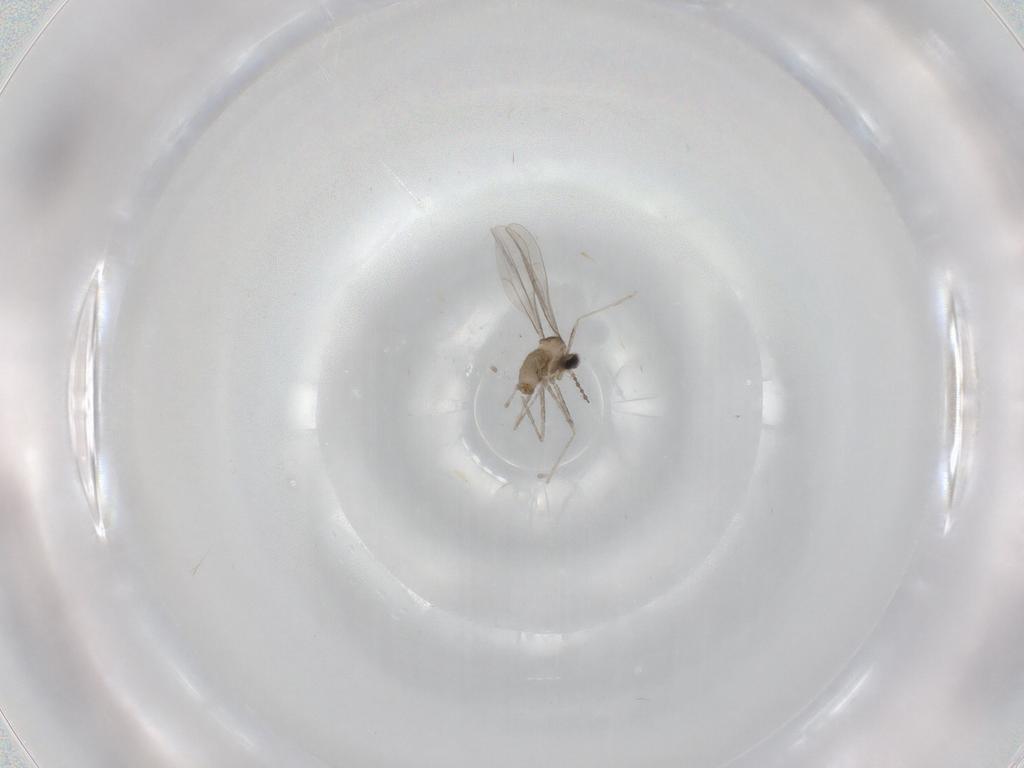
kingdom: Animalia
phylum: Arthropoda
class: Insecta
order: Diptera
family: Cecidomyiidae
